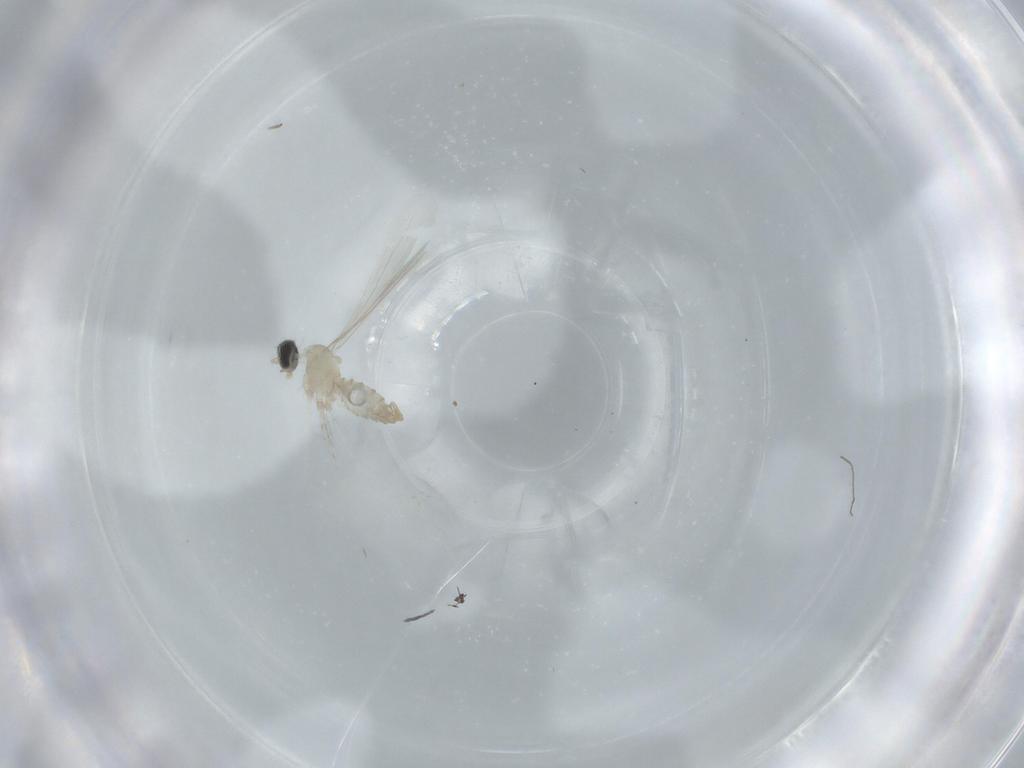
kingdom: Animalia
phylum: Arthropoda
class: Insecta
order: Diptera
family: Cecidomyiidae
